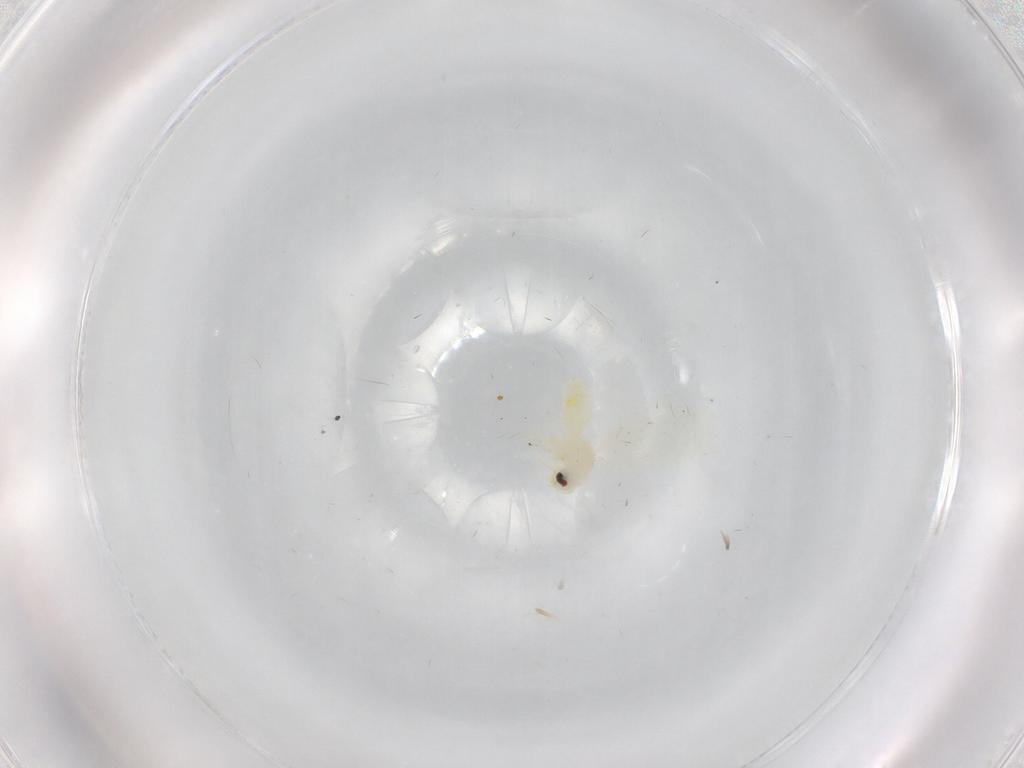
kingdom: Animalia
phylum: Arthropoda
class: Insecta
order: Hemiptera
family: Aleyrodidae
